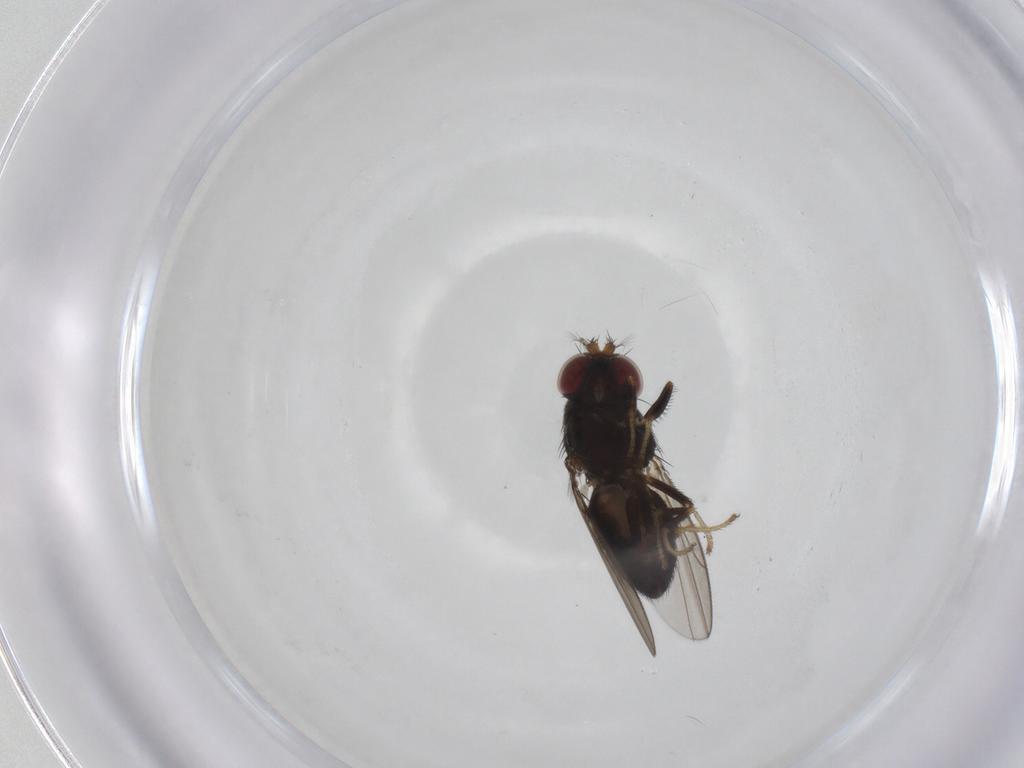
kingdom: Animalia
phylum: Arthropoda
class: Insecta
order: Diptera
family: Ephydridae
